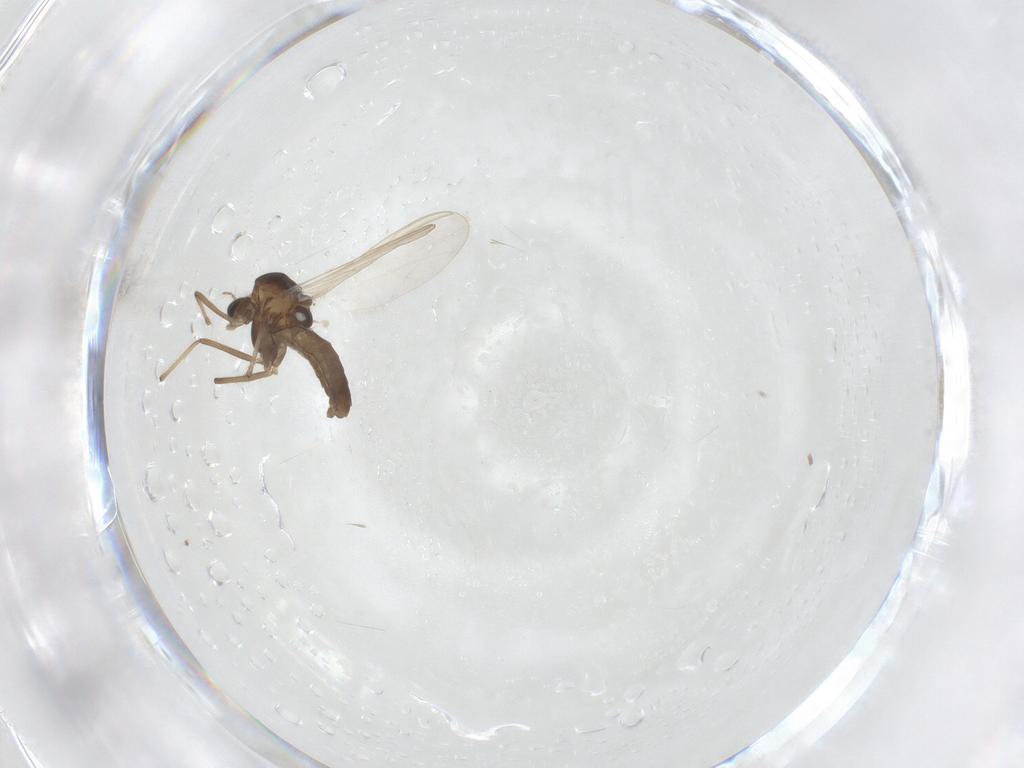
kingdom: Animalia
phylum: Arthropoda
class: Insecta
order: Diptera
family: Chironomidae
